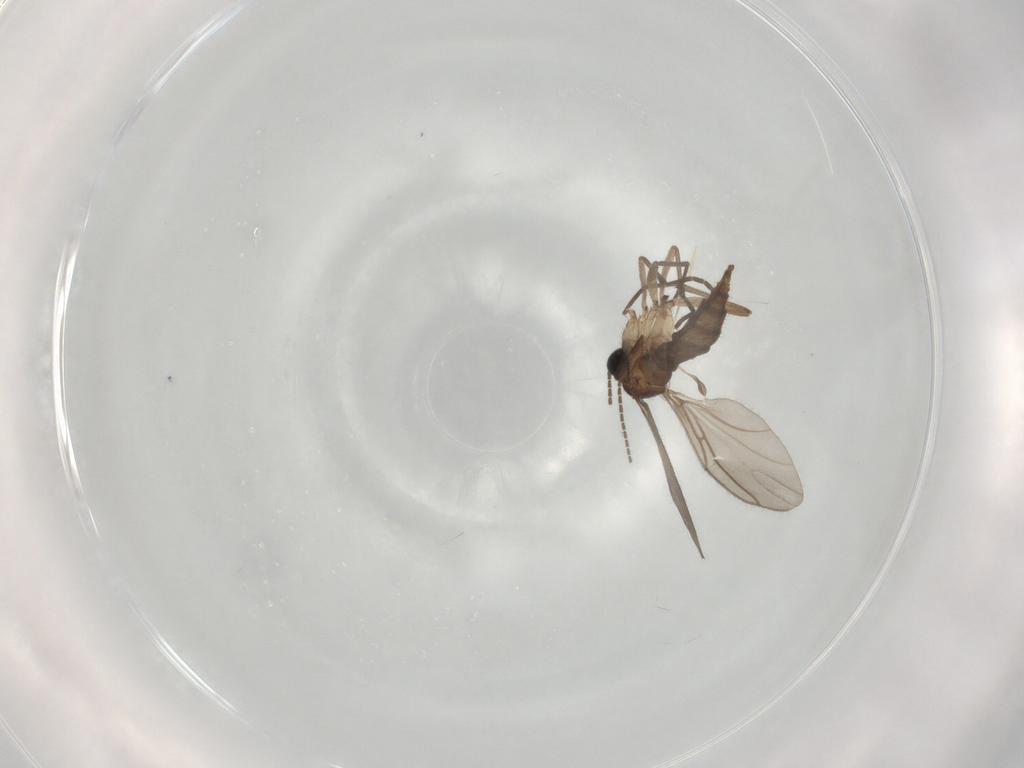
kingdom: Animalia
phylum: Arthropoda
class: Insecta
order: Diptera
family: Sciaridae
